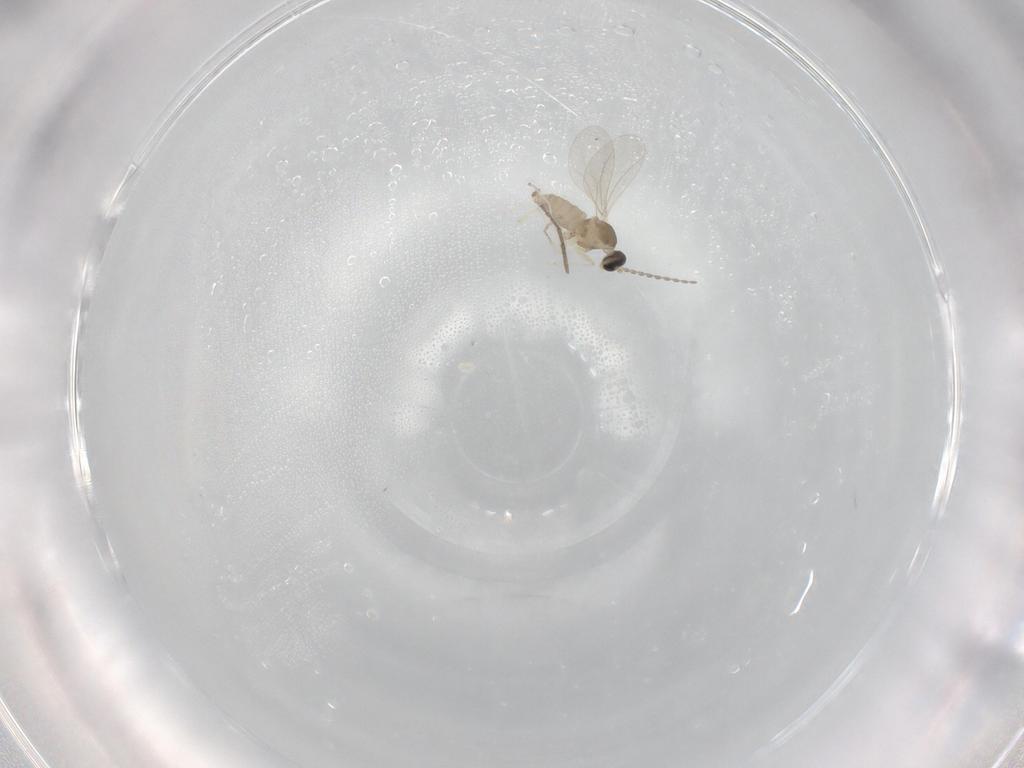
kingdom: Animalia
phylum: Arthropoda
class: Insecta
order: Diptera
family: Cecidomyiidae
